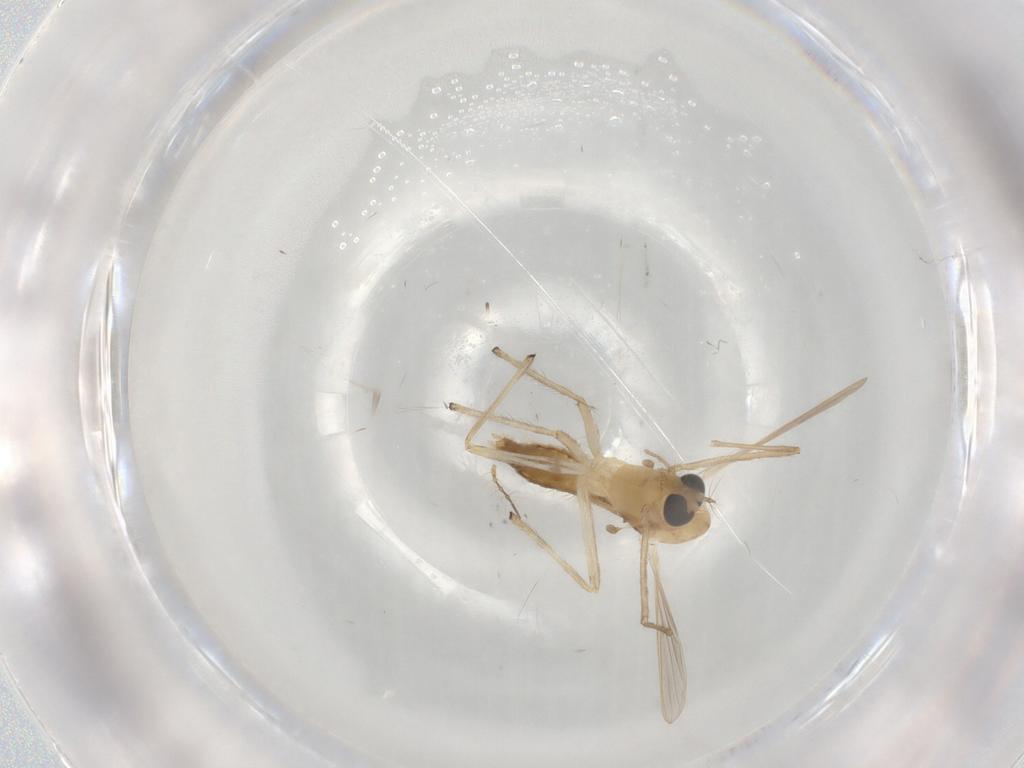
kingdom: Animalia
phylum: Arthropoda
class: Insecta
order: Diptera
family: Chironomidae
